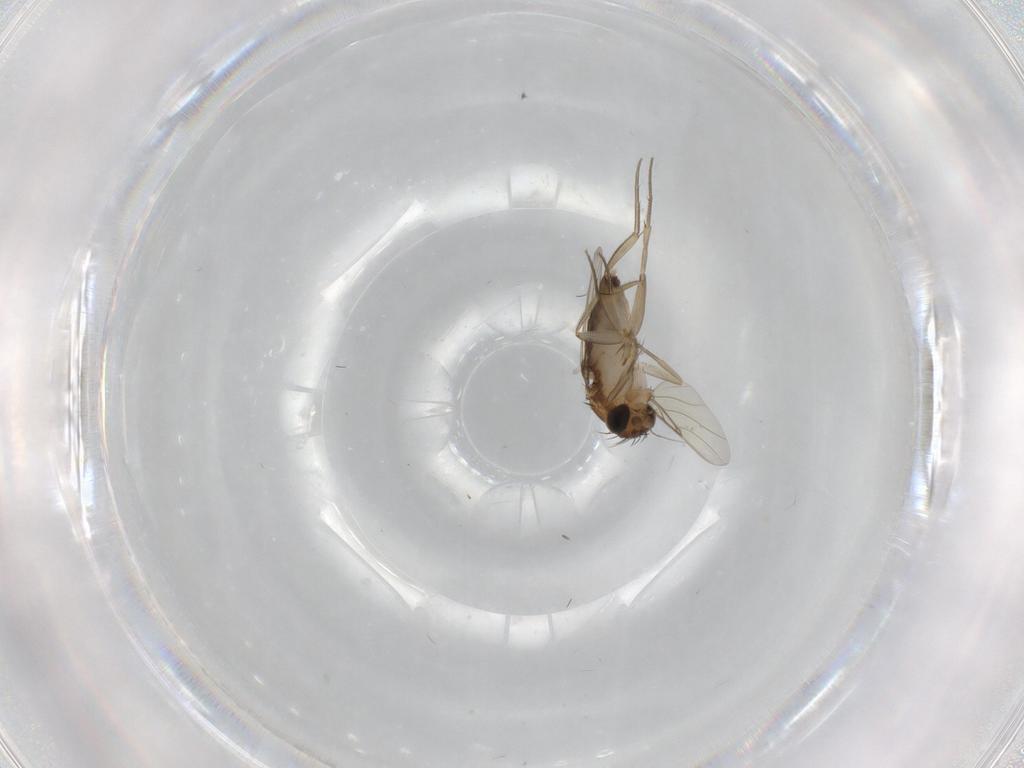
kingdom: Animalia
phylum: Arthropoda
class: Insecta
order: Diptera
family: Phoridae
